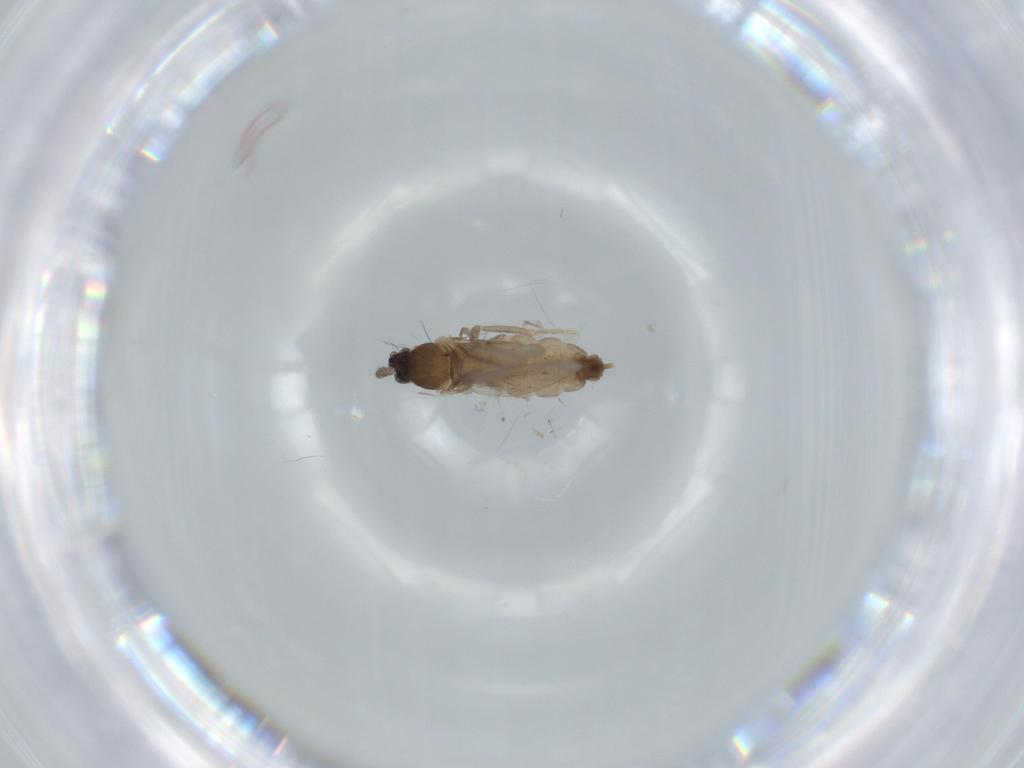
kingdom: Animalia
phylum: Arthropoda
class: Insecta
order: Diptera
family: Cecidomyiidae
